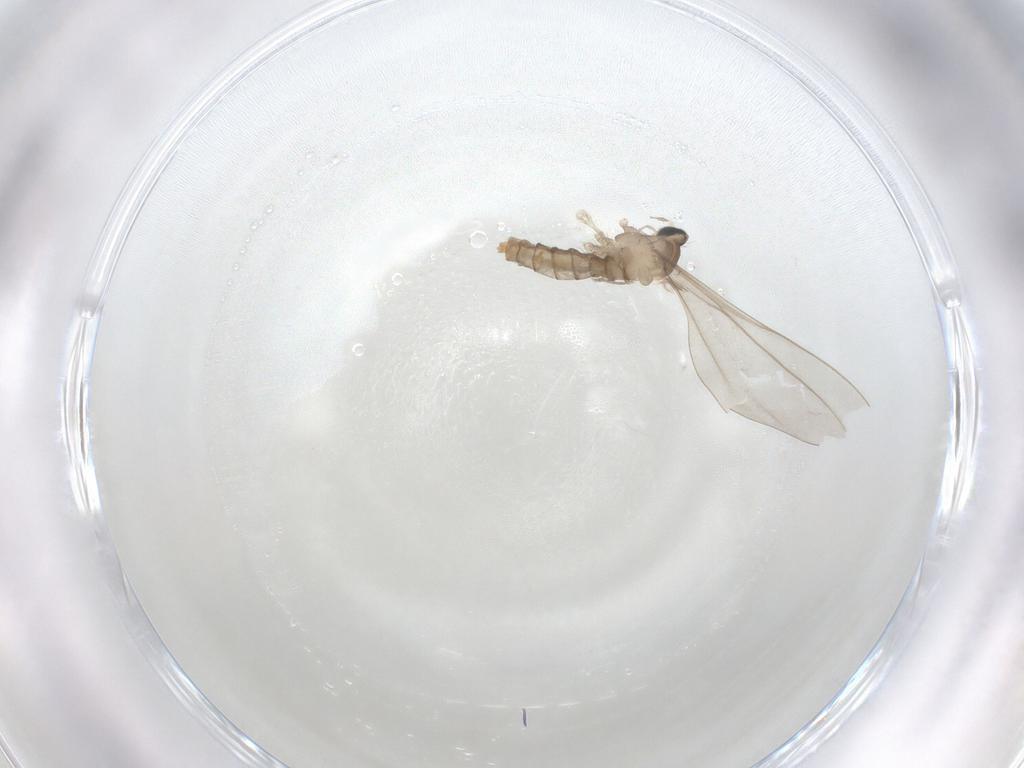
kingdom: Animalia
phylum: Arthropoda
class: Insecta
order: Diptera
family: Cecidomyiidae
